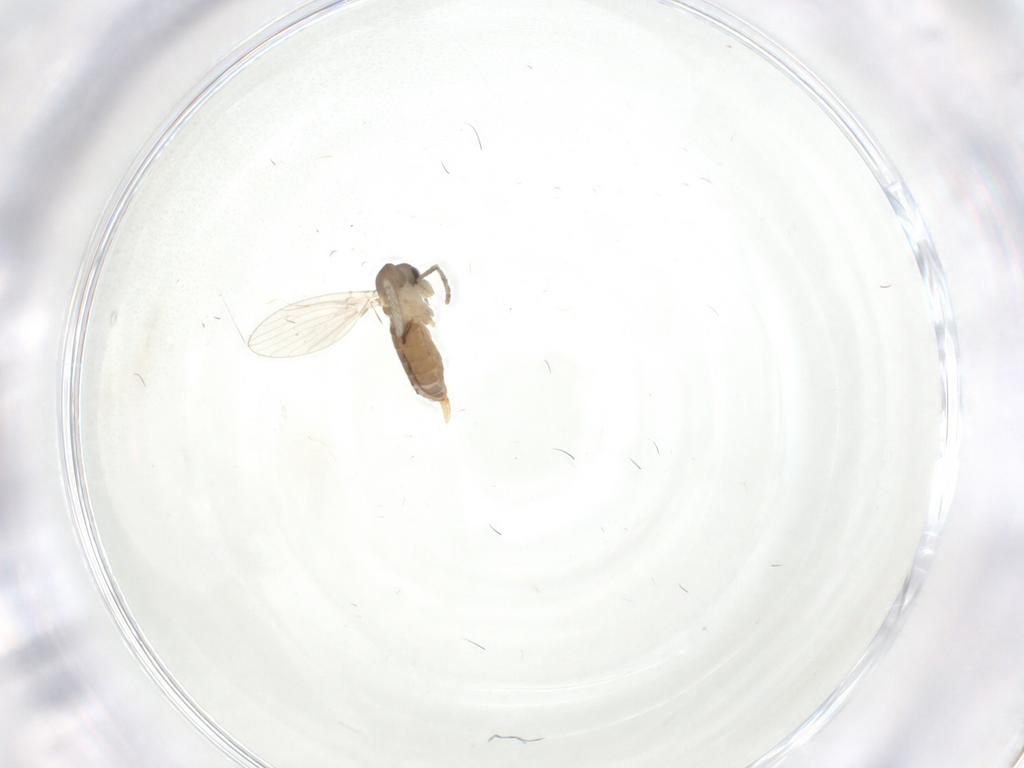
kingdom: Animalia
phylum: Arthropoda
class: Insecta
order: Diptera
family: Psychodidae
